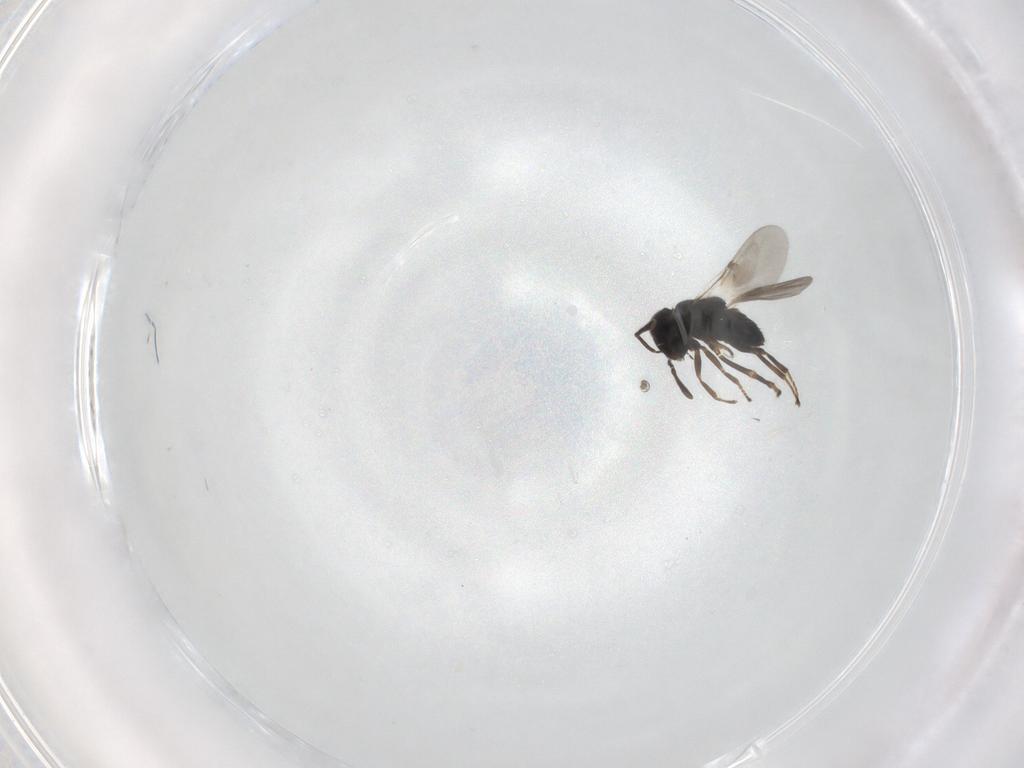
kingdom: Animalia
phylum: Arthropoda
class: Insecta
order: Hymenoptera
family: Encyrtidae
